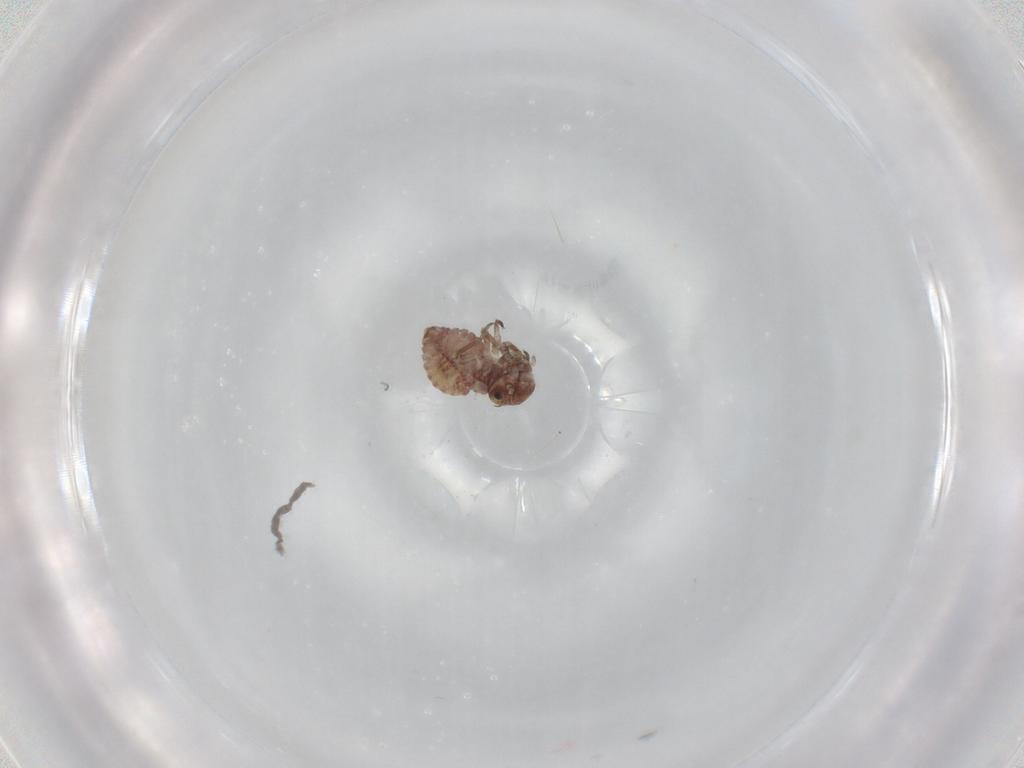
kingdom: Animalia
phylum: Arthropoda
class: Insecta
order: Psocodea
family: Psocidae
